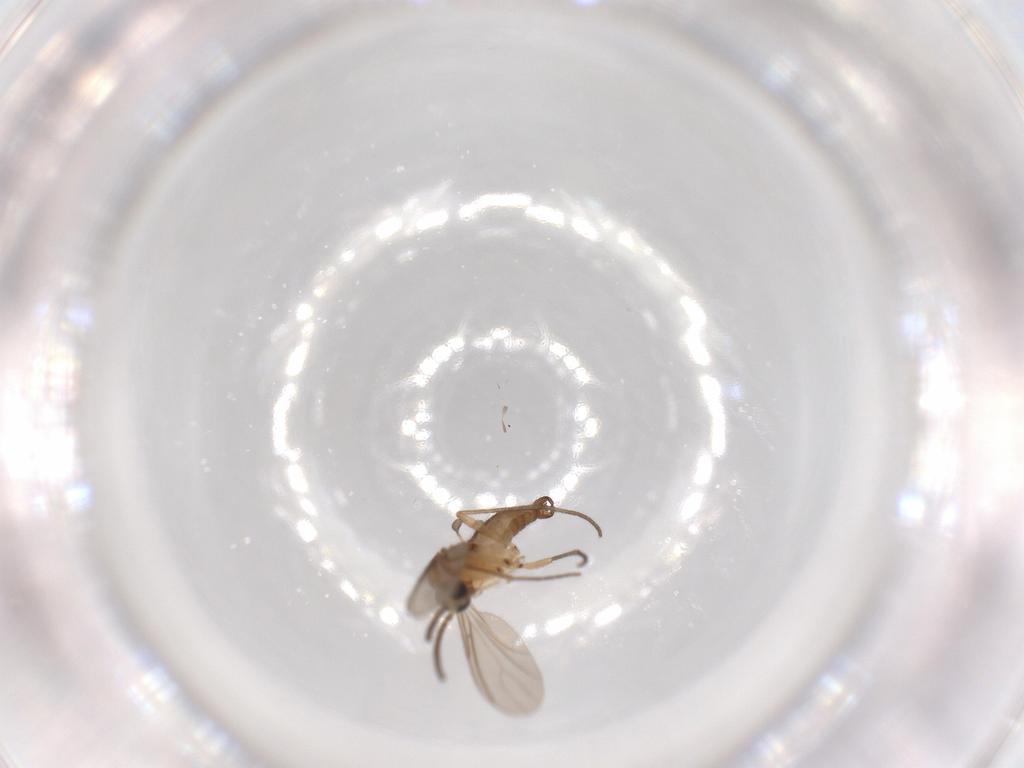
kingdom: Animalia
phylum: Arthropoda
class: Insecta
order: Diptera
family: Sciaridae
